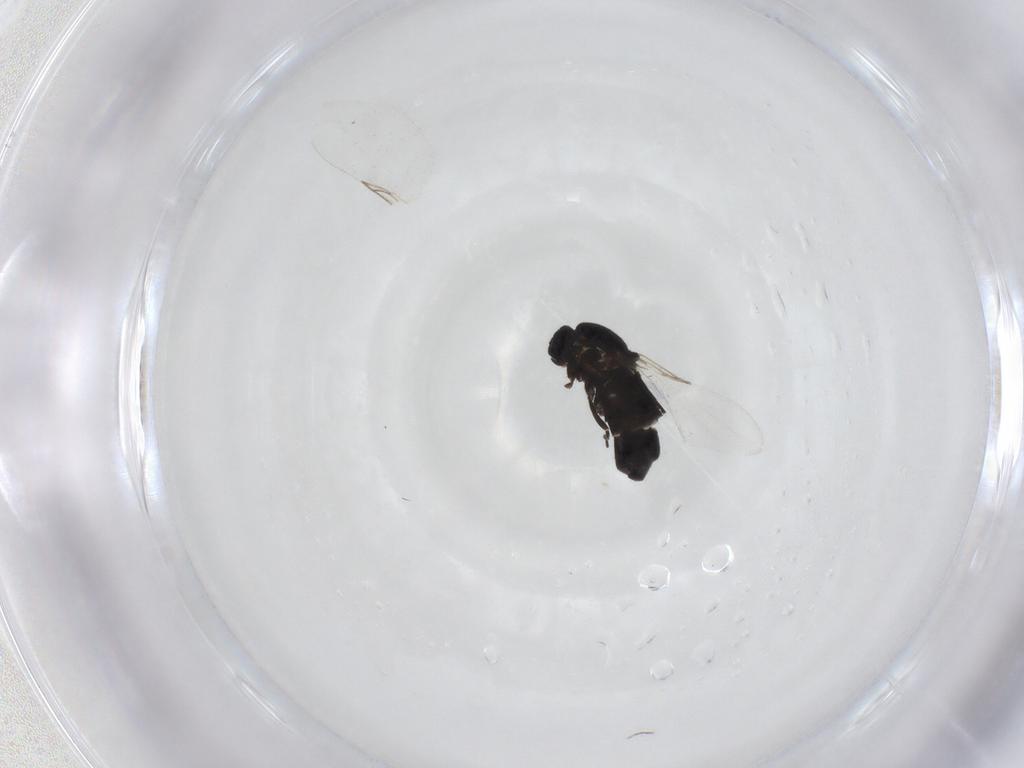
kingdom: Animalia
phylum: Arthropoda
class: Insecta
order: Diptera
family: Scatopsidae
